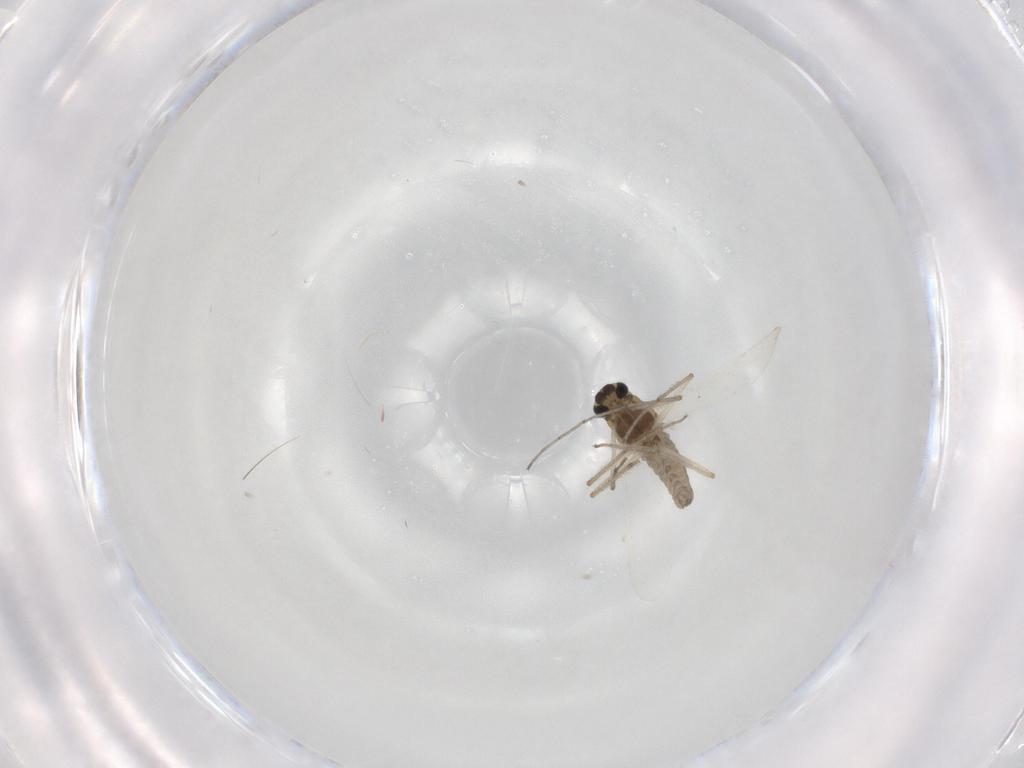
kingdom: Animalia
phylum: Arthropoda
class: Insecta
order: Diptera
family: Chironomidae
